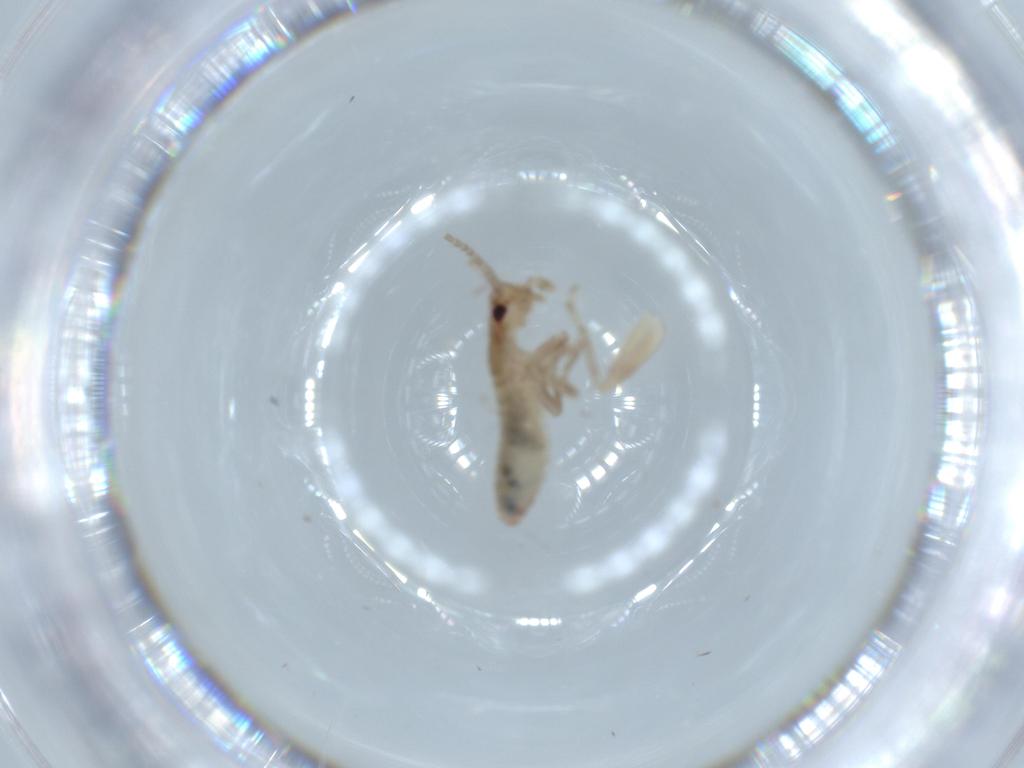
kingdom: Animalia
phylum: Arthropoda
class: Insecta
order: Orthoptera
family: Mogoplistidae
